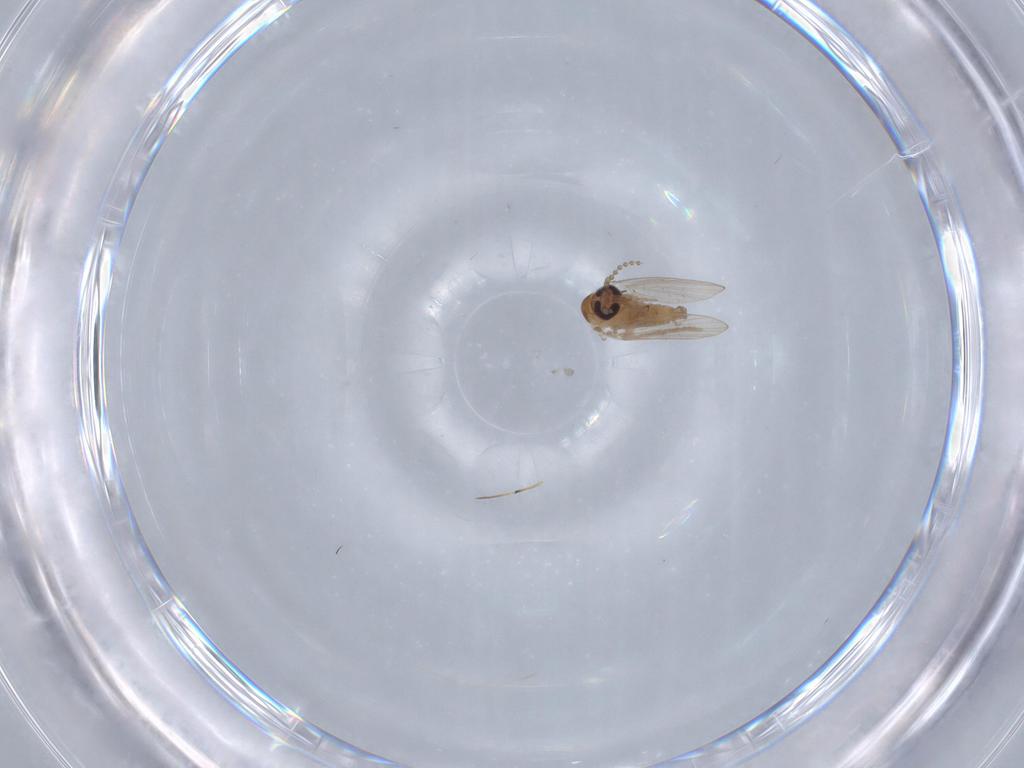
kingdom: Animalia
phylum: Arthropoda
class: Insecta
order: Diptera
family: Psychodidae
